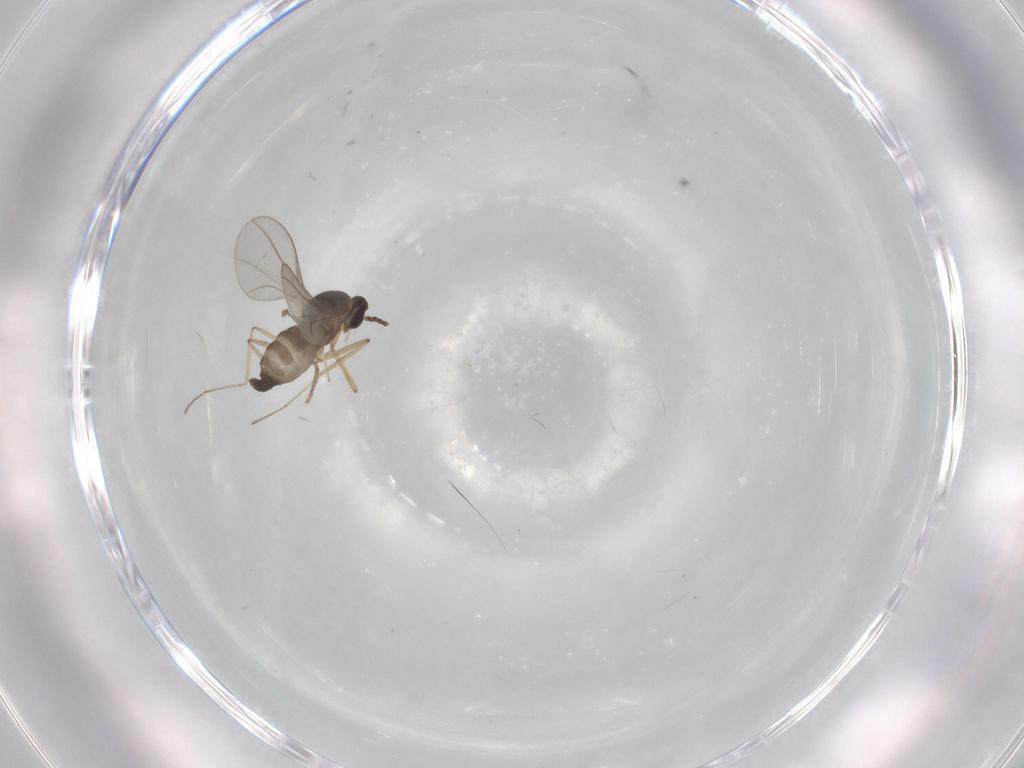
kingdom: Animalia
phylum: Arthropoda
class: Insecta
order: Diptera
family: Cecidomyiidae
